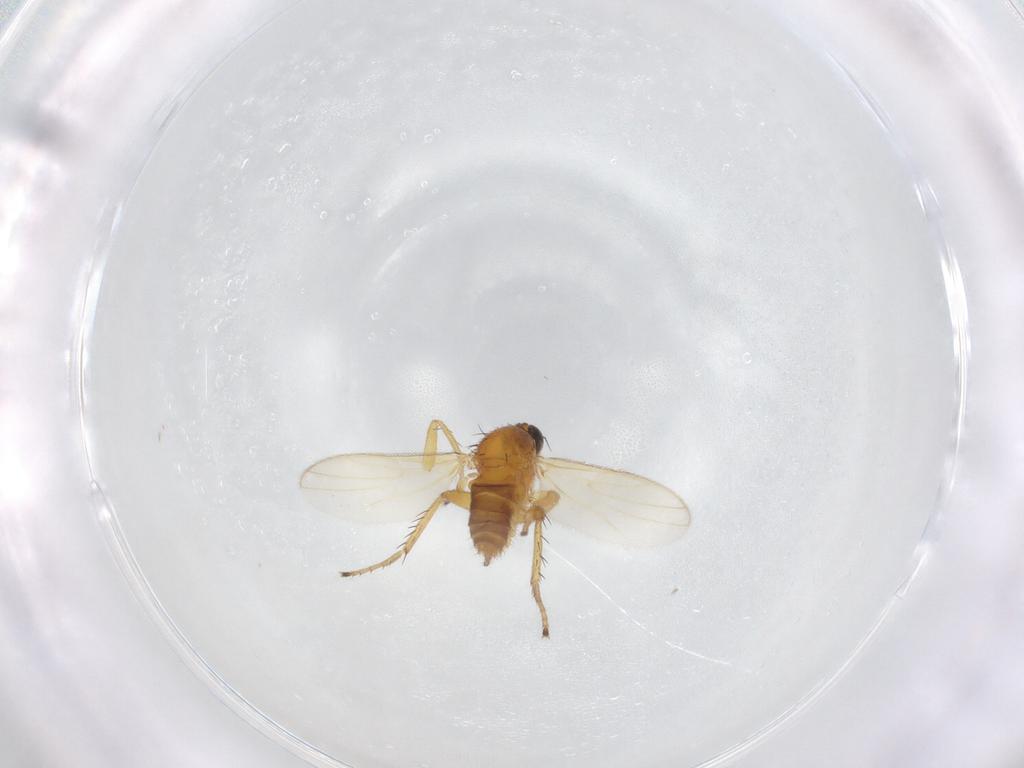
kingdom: Animalia
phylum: Arthropoda
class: Insecta
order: Diptera
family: Hybotidae
